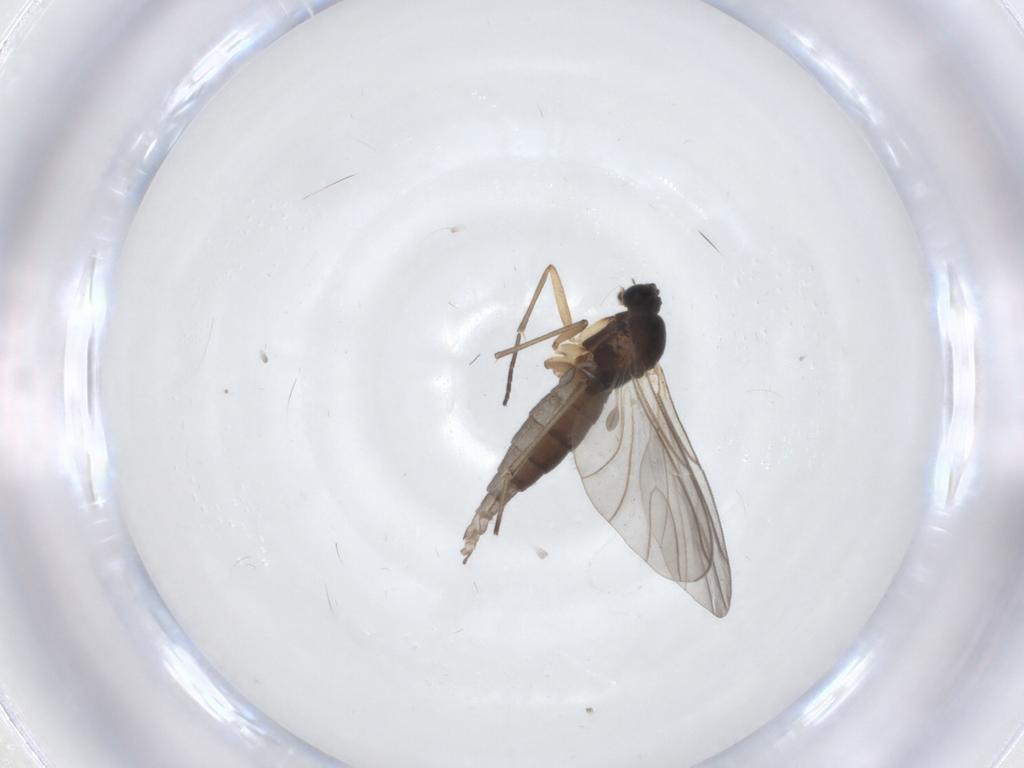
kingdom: Animalia
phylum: Arthropoda
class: Insecta
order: Diptera
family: Sciaridae
